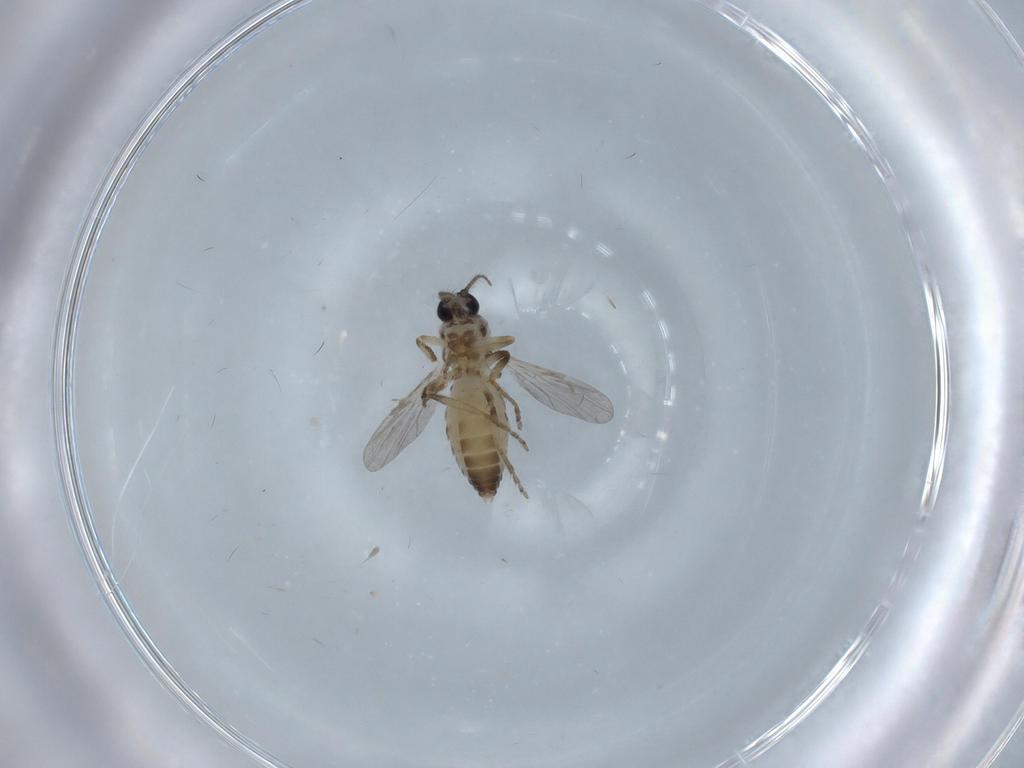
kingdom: Animalia
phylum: Arthropoda
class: Insecta
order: Diptera
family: Ceratopogonidae
